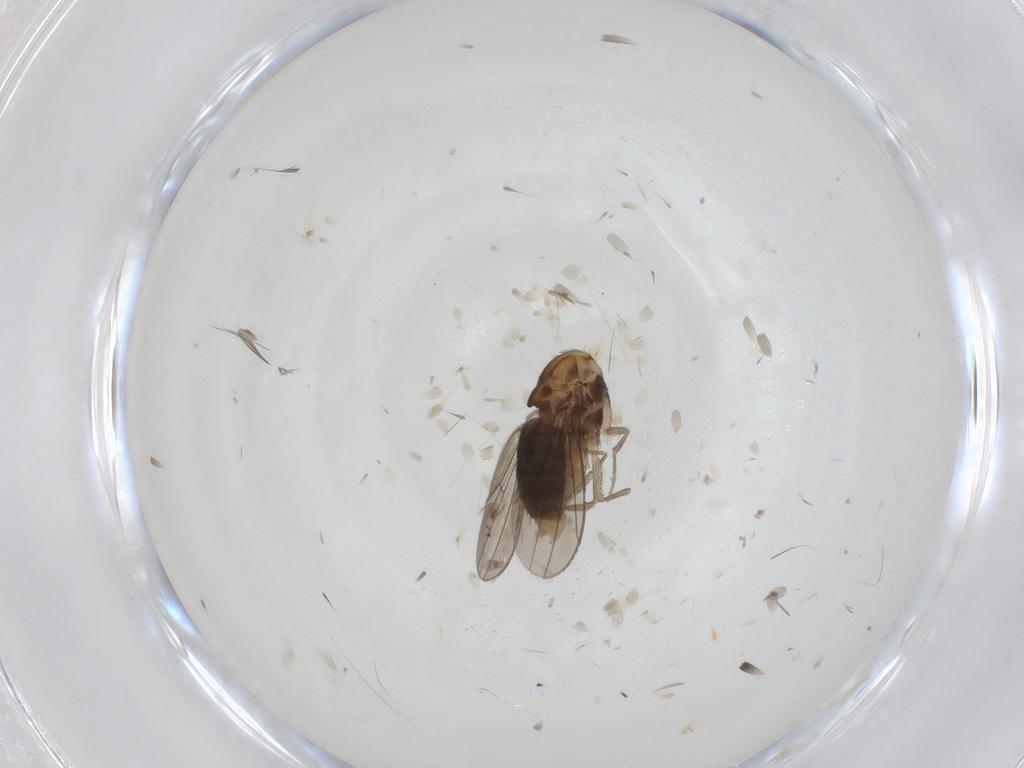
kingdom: Animalia
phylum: Arthropoda
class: Insecta
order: Diptera
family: Drosophilidae
